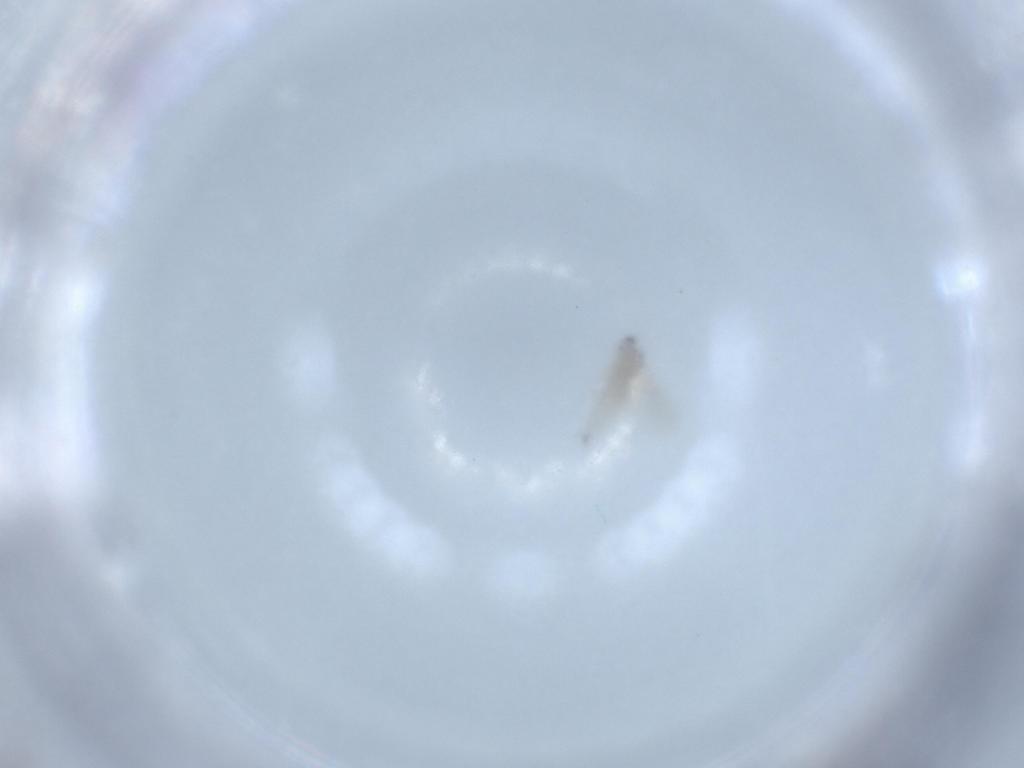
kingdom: Animalia
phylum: Arthropoda
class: Insecta
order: Diptera
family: Cecidomyiidae
